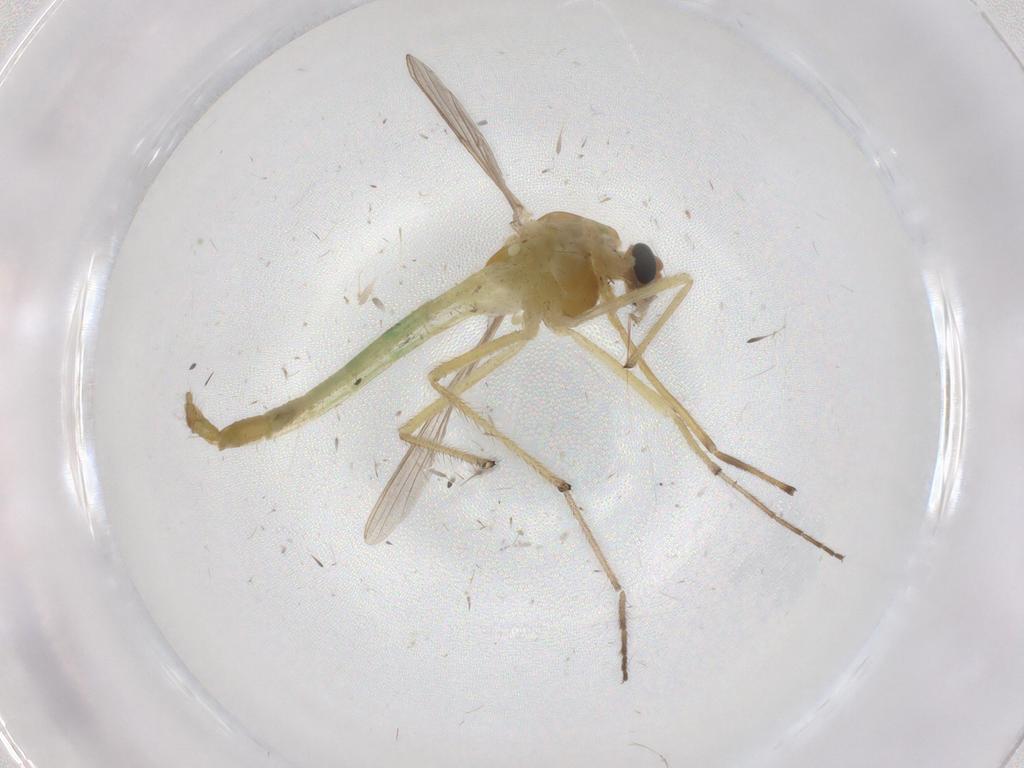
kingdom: Animalia
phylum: Arthropoda
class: Insecta
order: Diptera
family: Chironomidae
